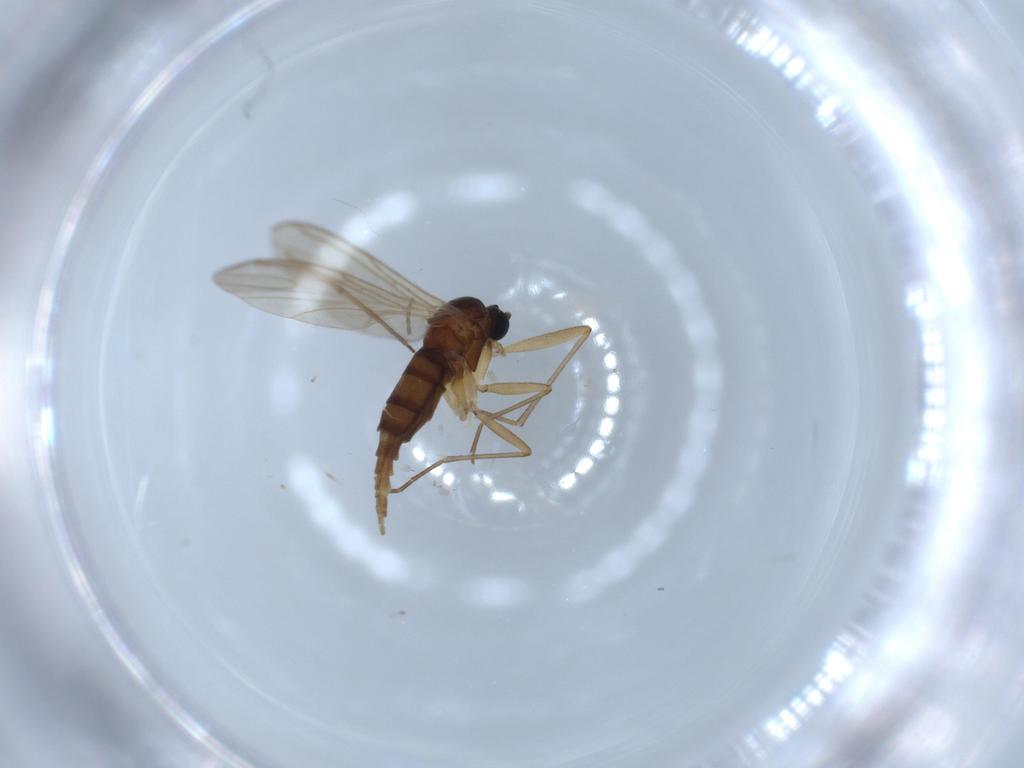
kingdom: Animalia
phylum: Arthropoda
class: Insecta
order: Diptera
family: Sciaridae
